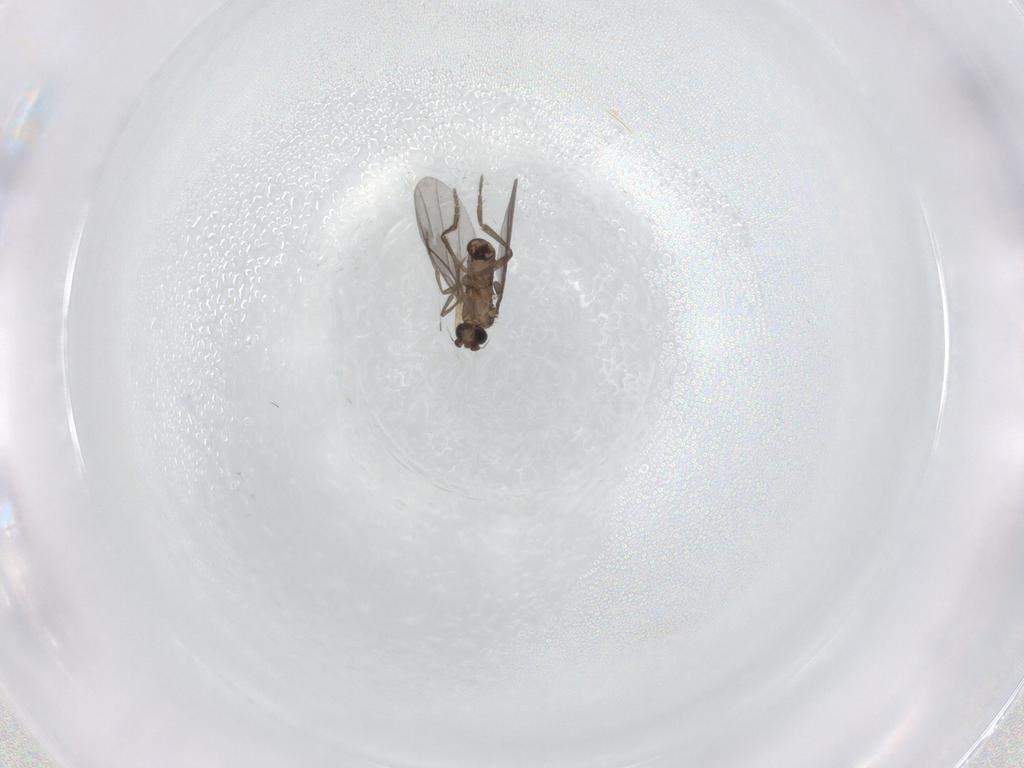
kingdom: Animalia
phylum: Arthropoda
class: Insecta
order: Diptera
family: Phoridae
